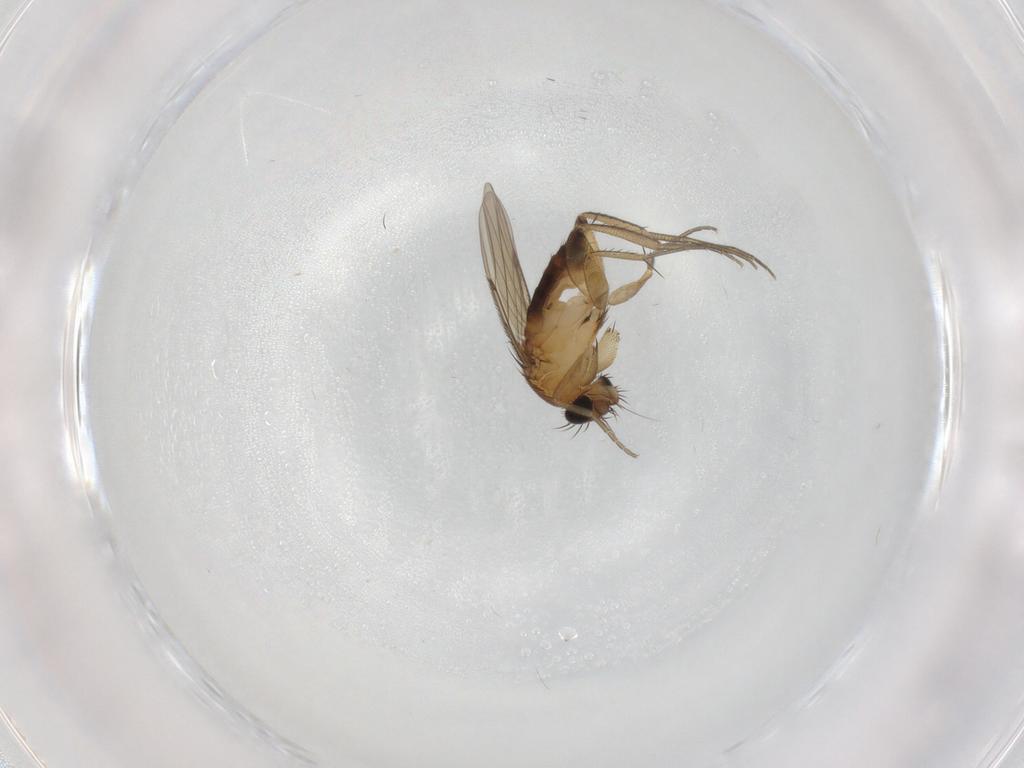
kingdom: Animalia
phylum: Arthropoda
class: Insecta
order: Diptera
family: Phoridae
